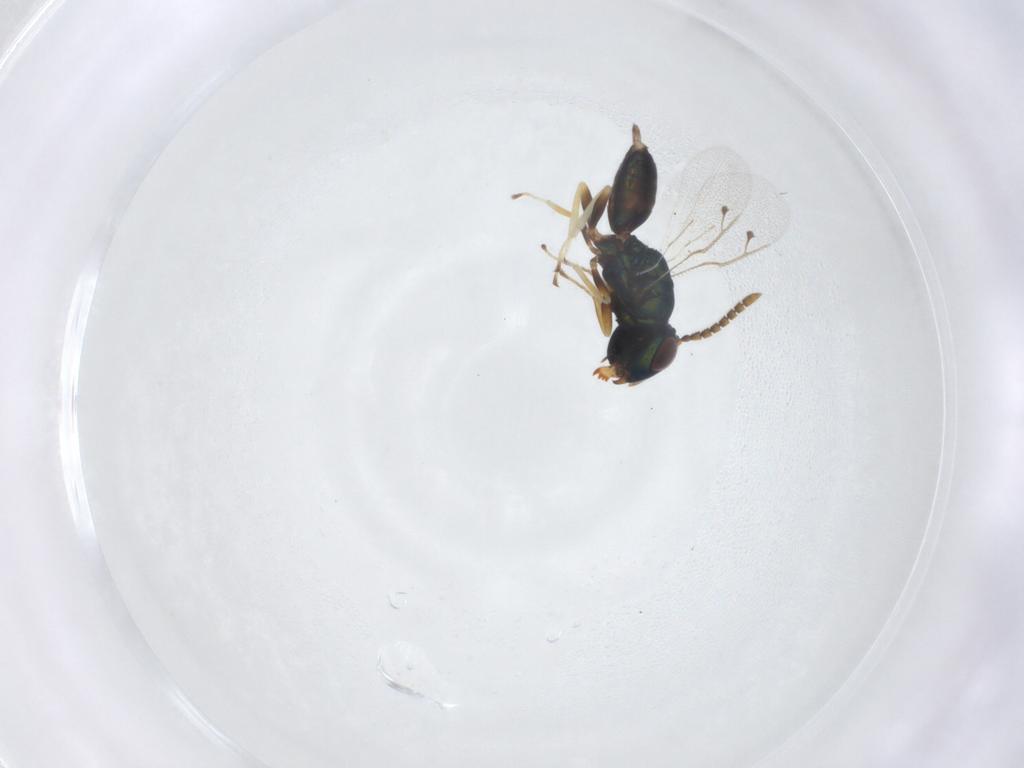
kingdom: Animalia
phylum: Arthropoda
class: Insecta
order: Hymenoptera
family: Pteromalidae
